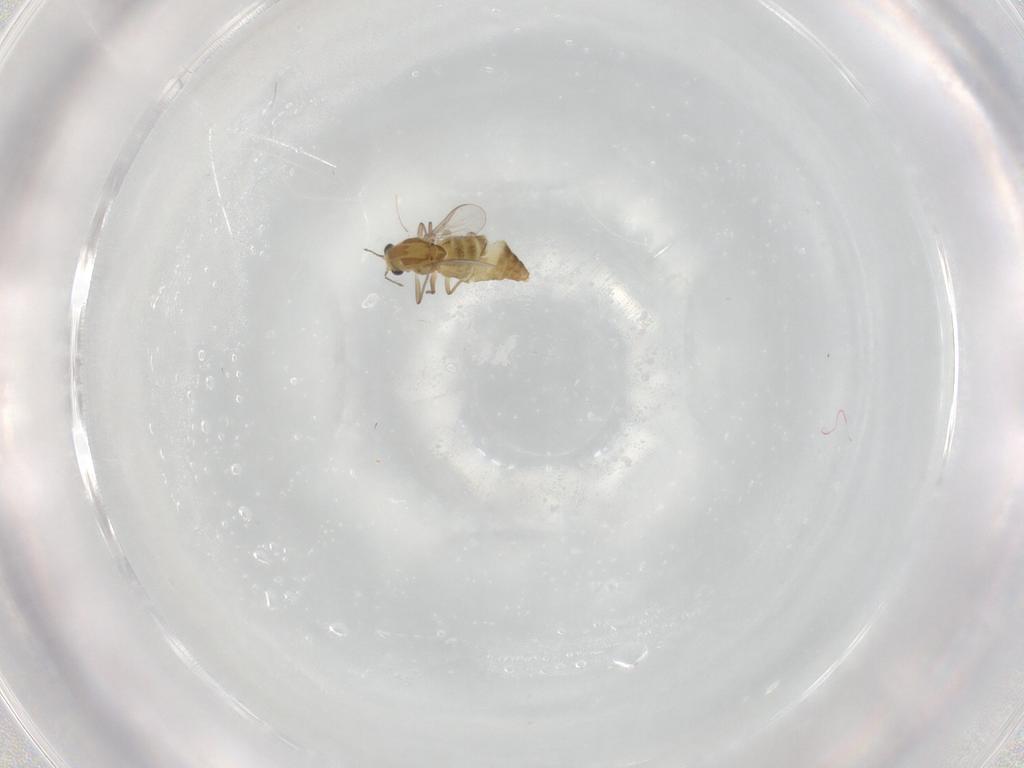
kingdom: Animalia
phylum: Arthropoda
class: Insecta
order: Diptera
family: Chironomidae
